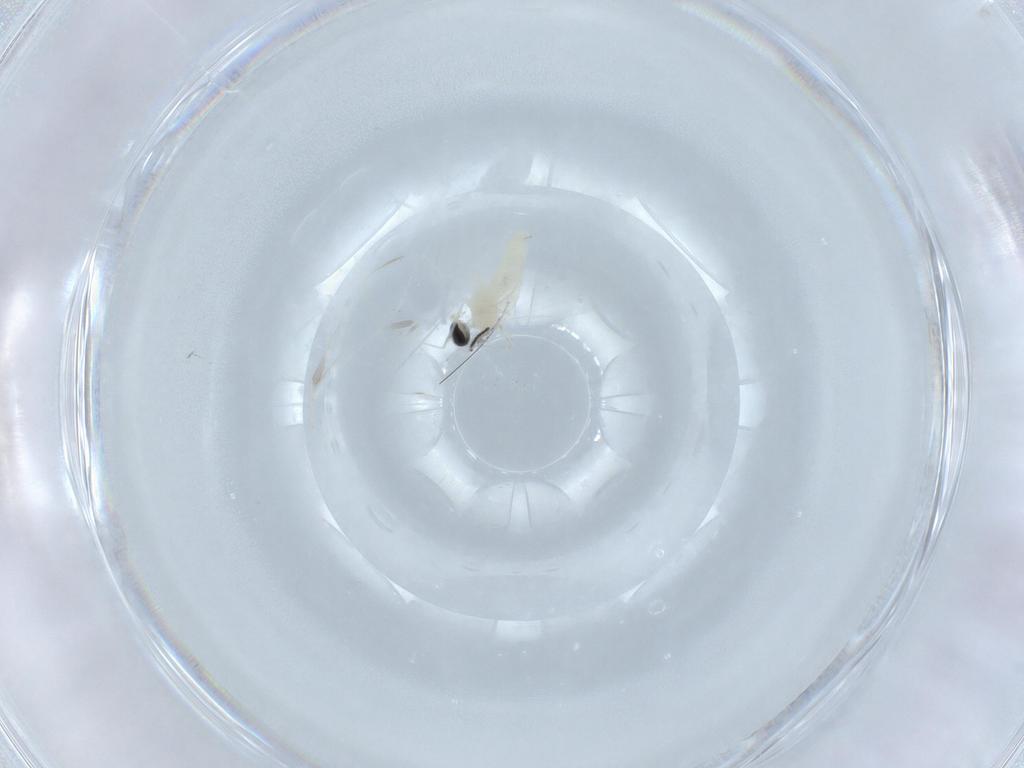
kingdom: Animalia
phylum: Arthropoda
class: Insecta
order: Diptera
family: Cecidomyiidae
